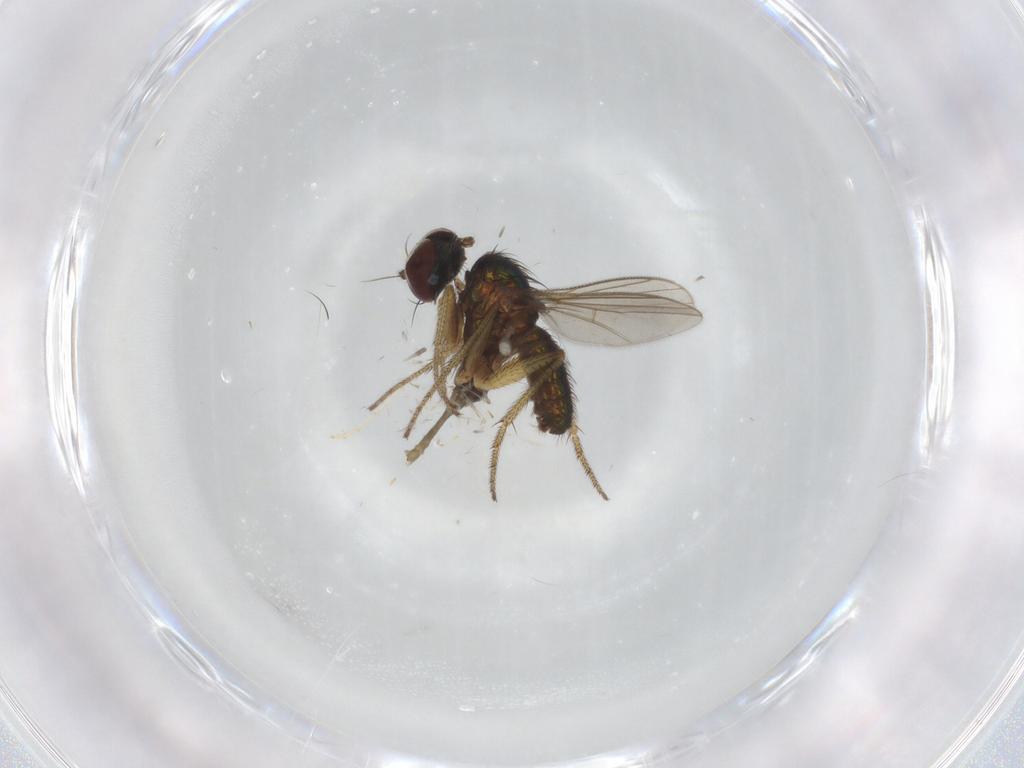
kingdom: Animalia
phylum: Arthropoda
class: Insecta
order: Diptera
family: Chironomidae
